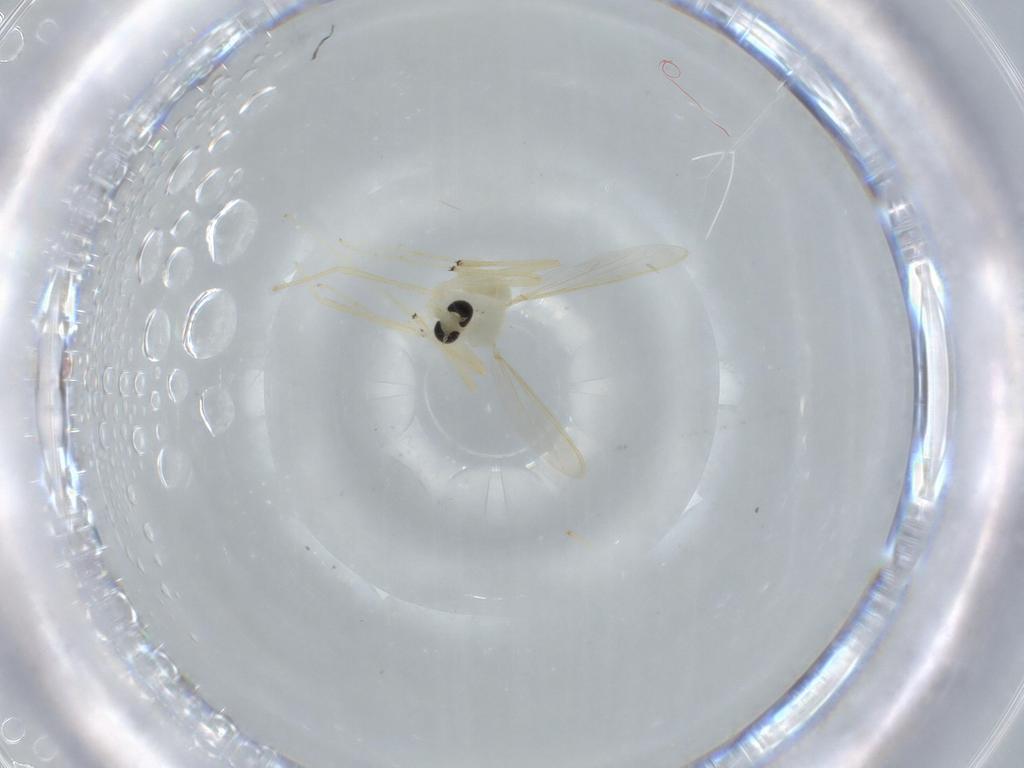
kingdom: Animalia
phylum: Arthropoda
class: Insecta
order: Diptera
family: Chironomidae
